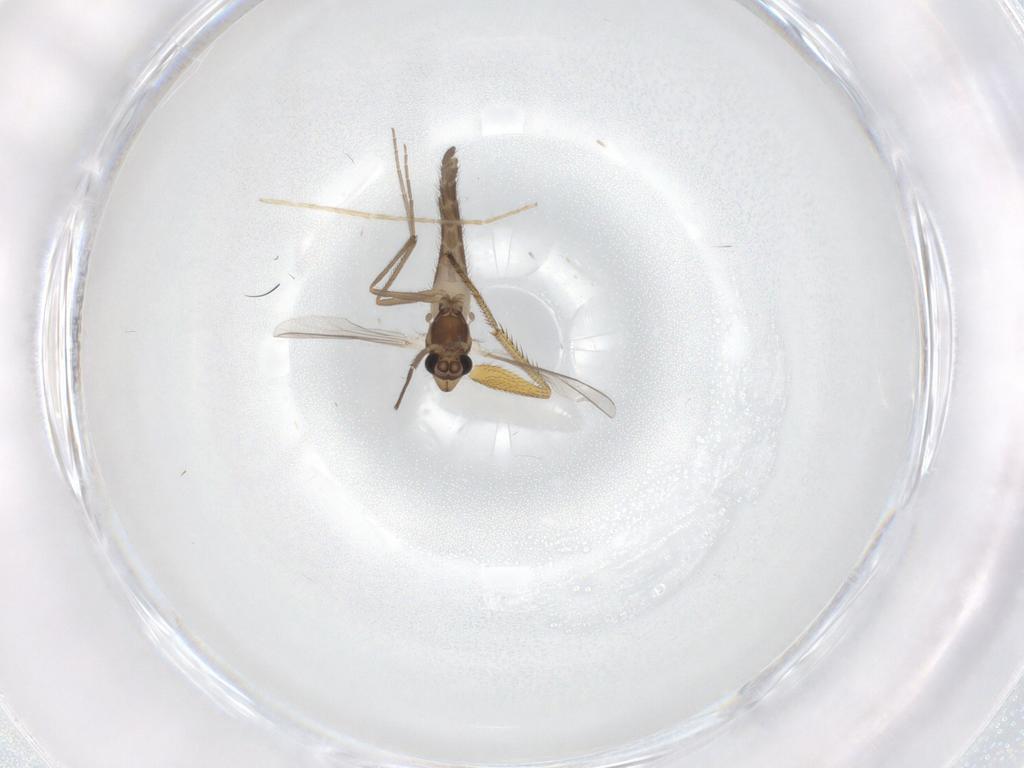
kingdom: Animalia
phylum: Arthropoda
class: Insecta
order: Diptera
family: Chironomidae
